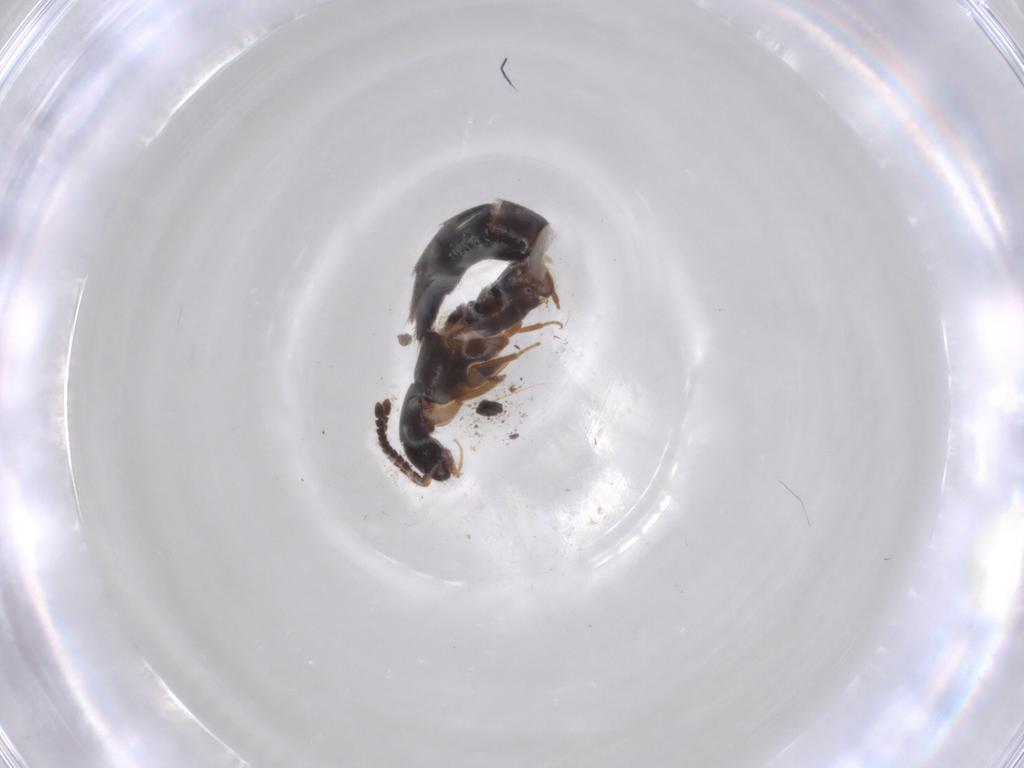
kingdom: Animalia
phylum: Arthropoda
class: Insecta
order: Coleoptera
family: Staphylinidae
